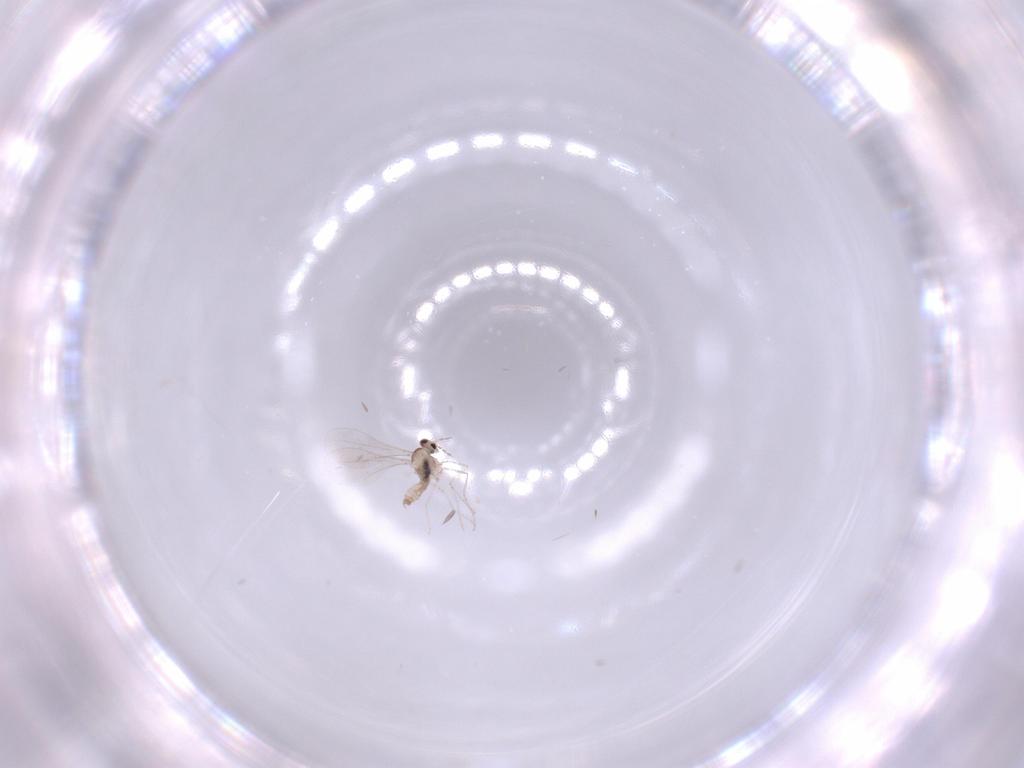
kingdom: Animalia
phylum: Arthropoda
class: Insecta
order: Diptera
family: Cecidomyiidae
